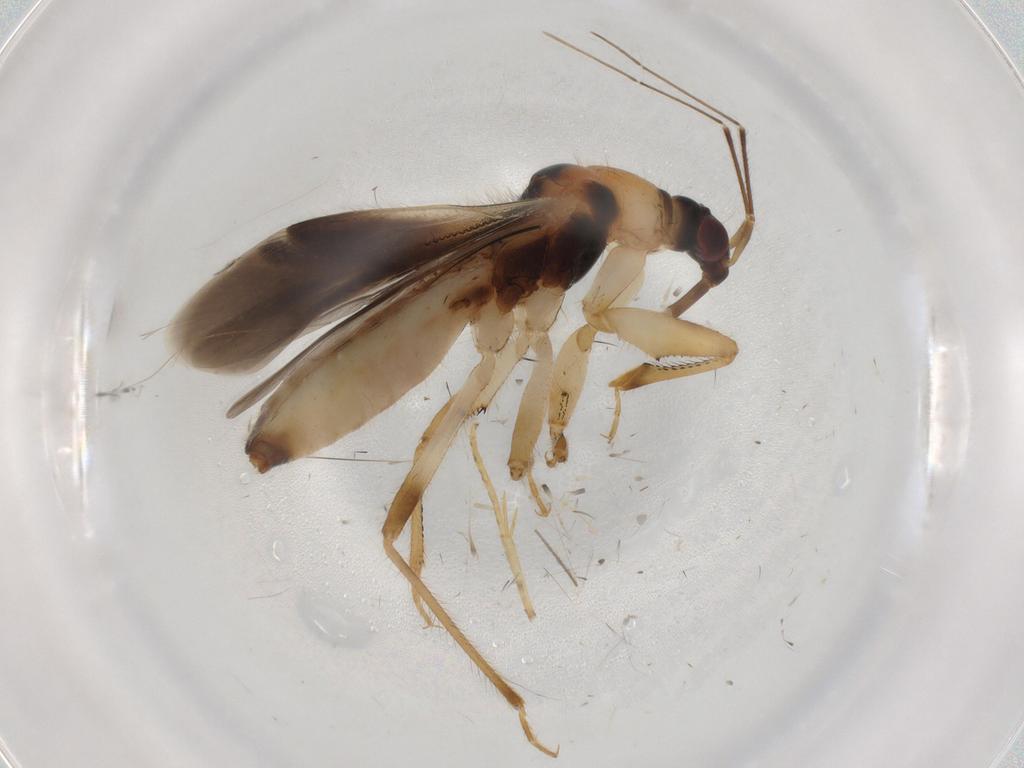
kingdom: Animalia
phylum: Arthropoda
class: Insecta
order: Hemiptera
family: Nabidae
